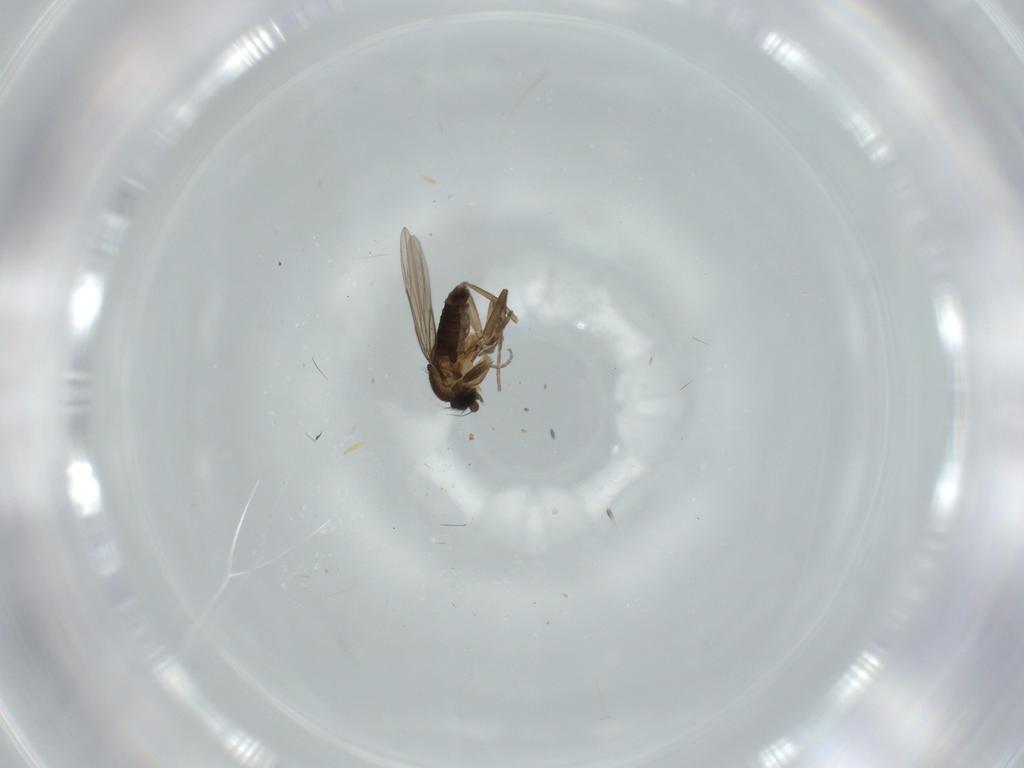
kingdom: Animalia
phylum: Arthropoda
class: Insecta
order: Diptera
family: Phoridae
